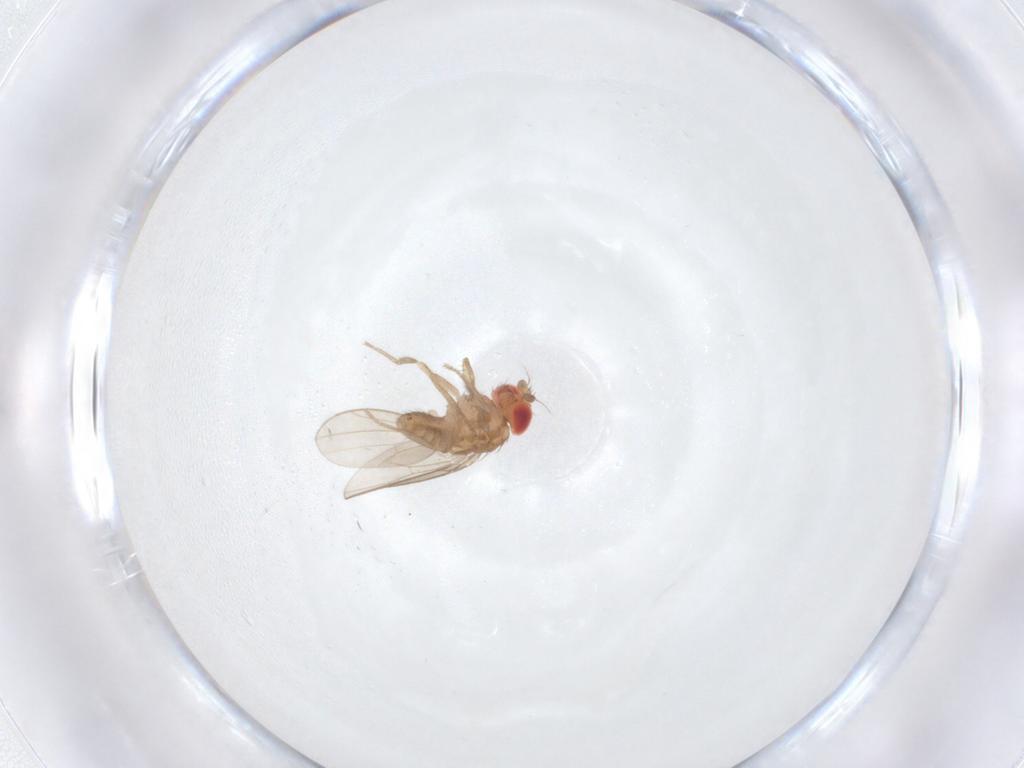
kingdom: Animalia
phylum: Arthropoda
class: Insecta
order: Diptera
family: Ephydridae
